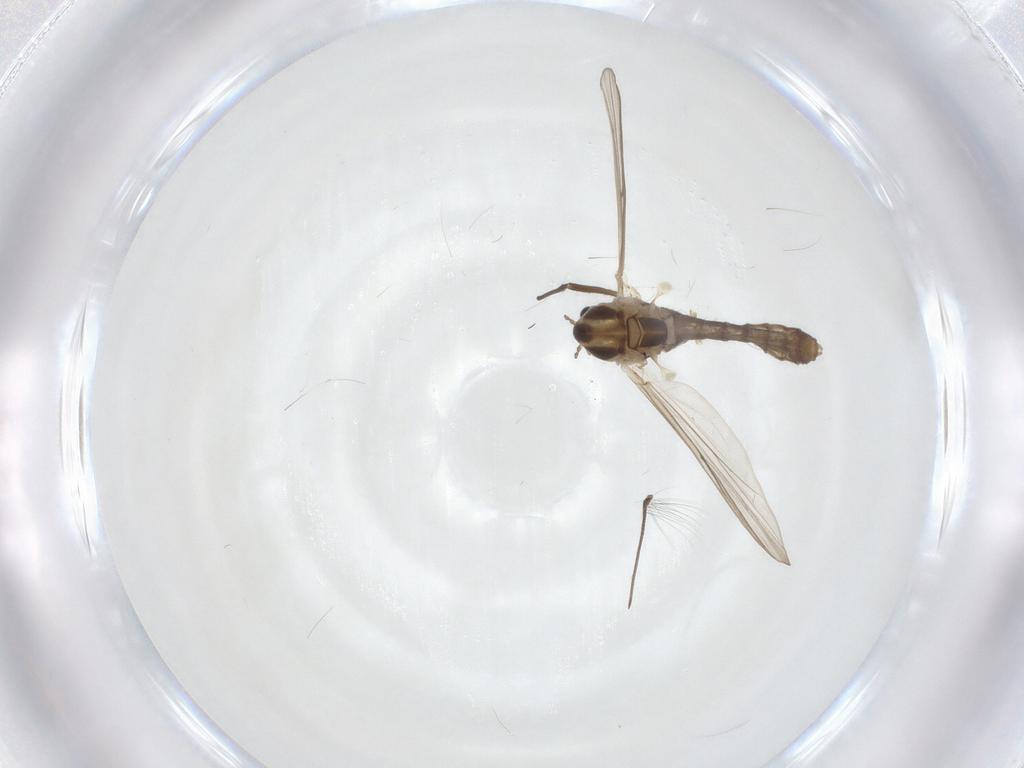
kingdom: Animalia
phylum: Arthropoda
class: Insecta
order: Diptera
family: Chironomidae
